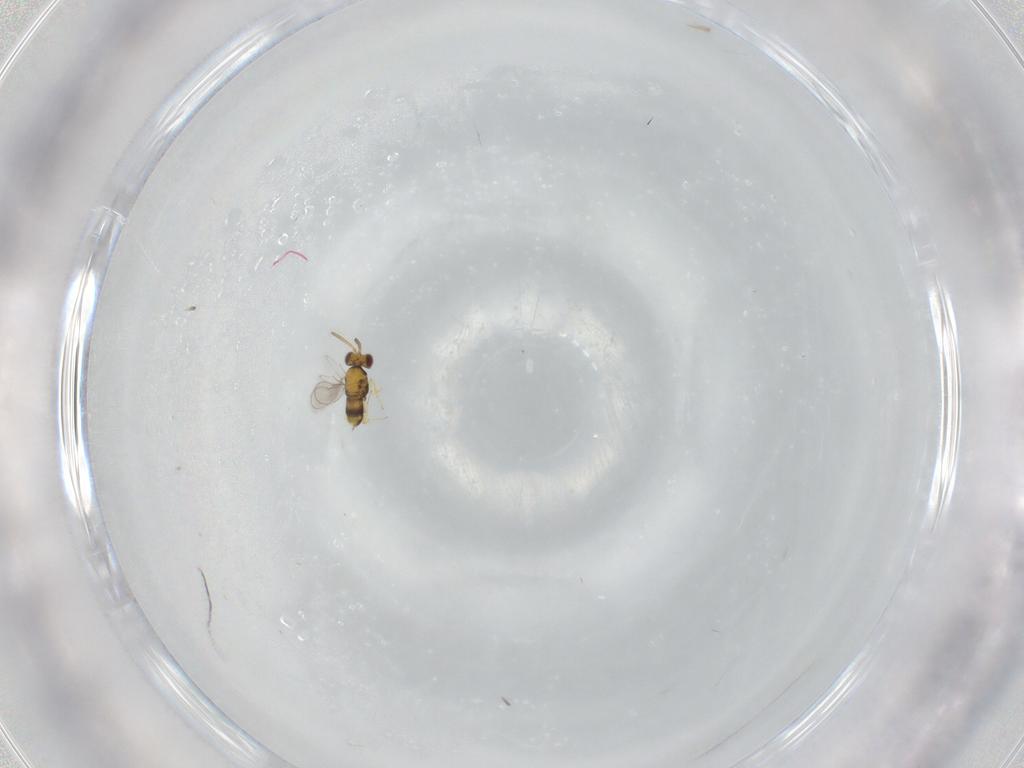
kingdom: Animalia
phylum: Arthropoda
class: Insecta
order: Hymenoptera
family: Aphelinidae
